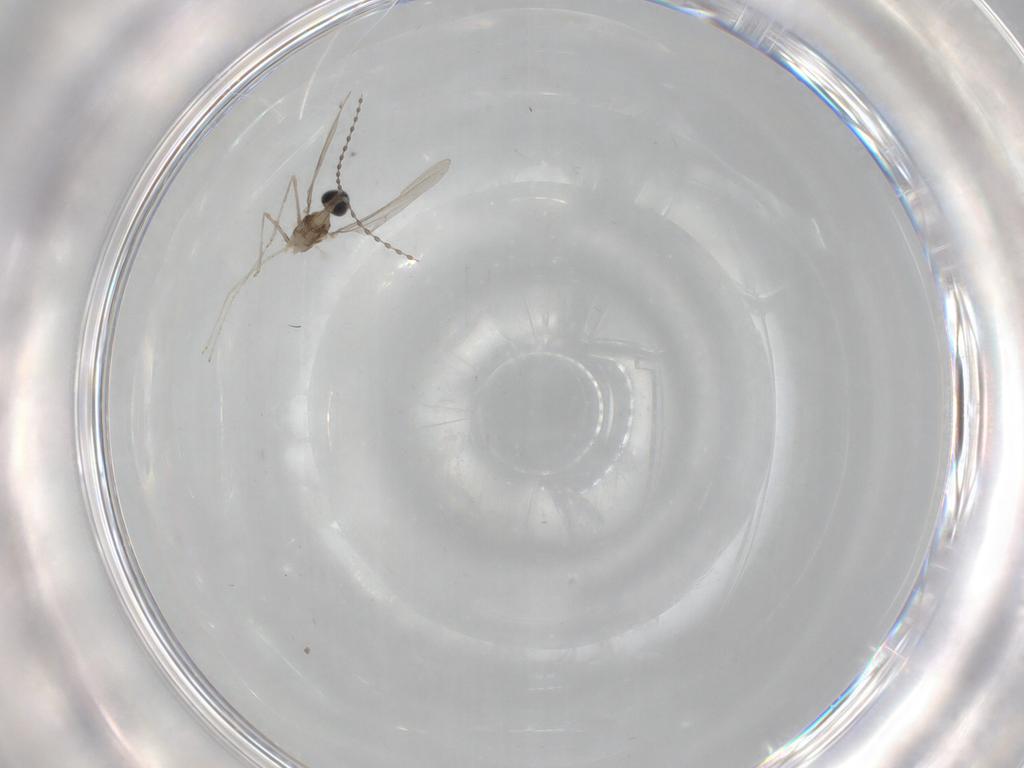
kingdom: Animalia
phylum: Arthropoda
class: Insecta
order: Diptera
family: Cecidomyiidae
